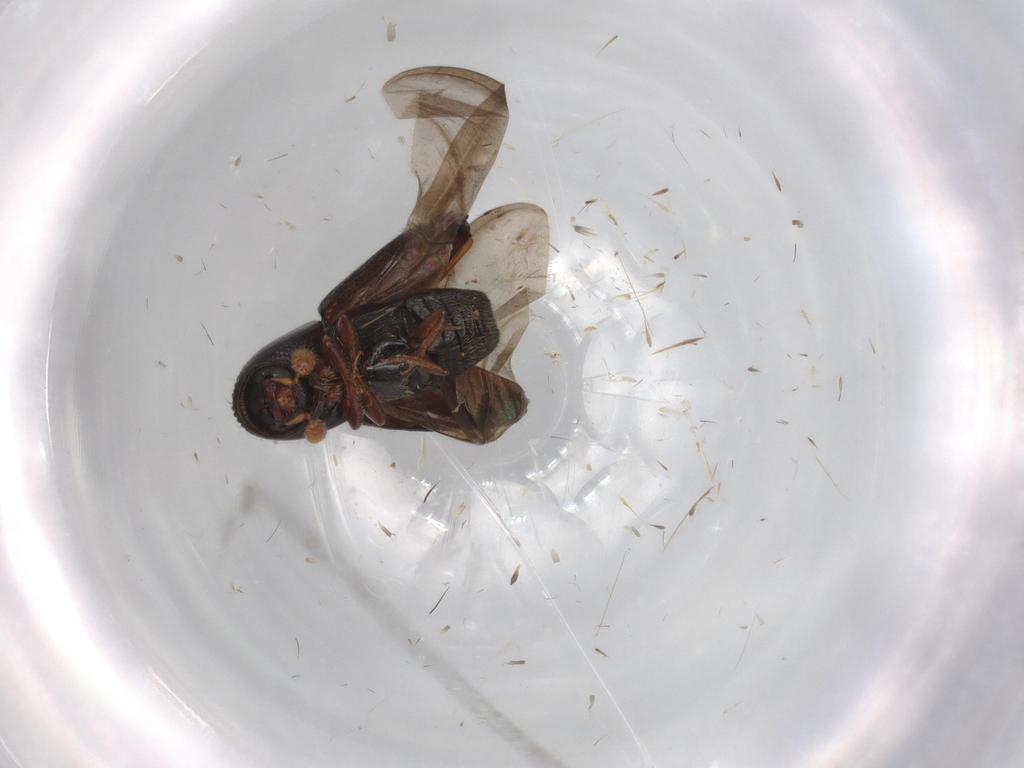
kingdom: Animalia
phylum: Arthropoda
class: Insecta
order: Coleoptera
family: Curculionidae
